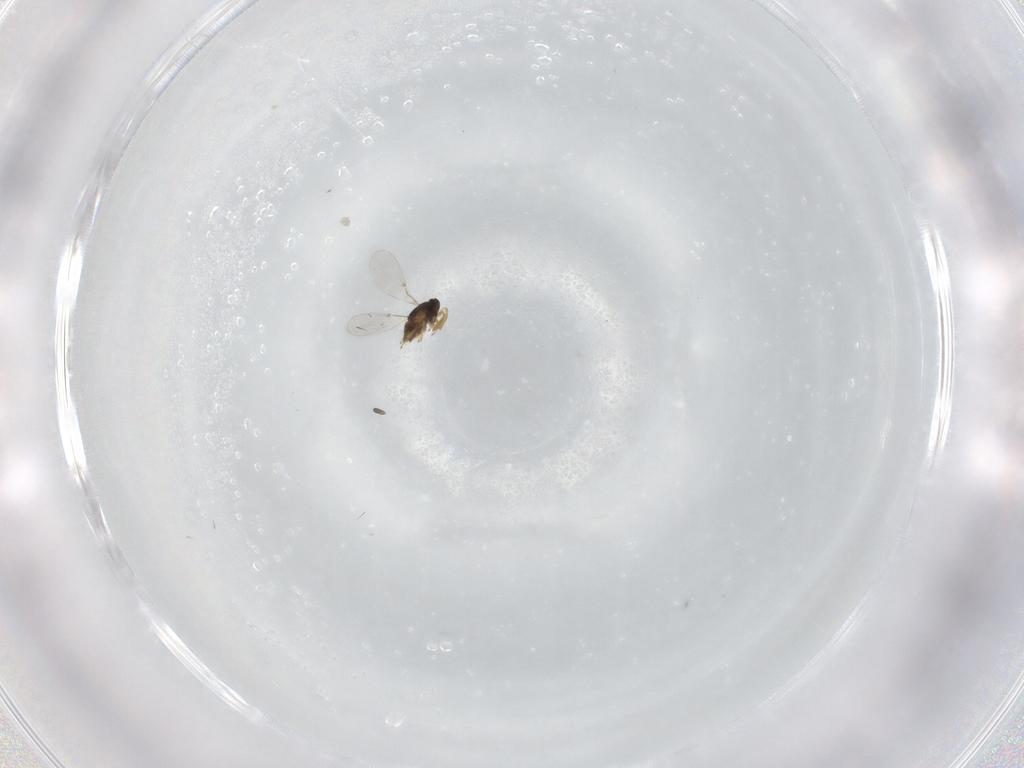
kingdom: Animalia
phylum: Arthropoda
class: Insecta
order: Hymenoptera
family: Encyrtidae
